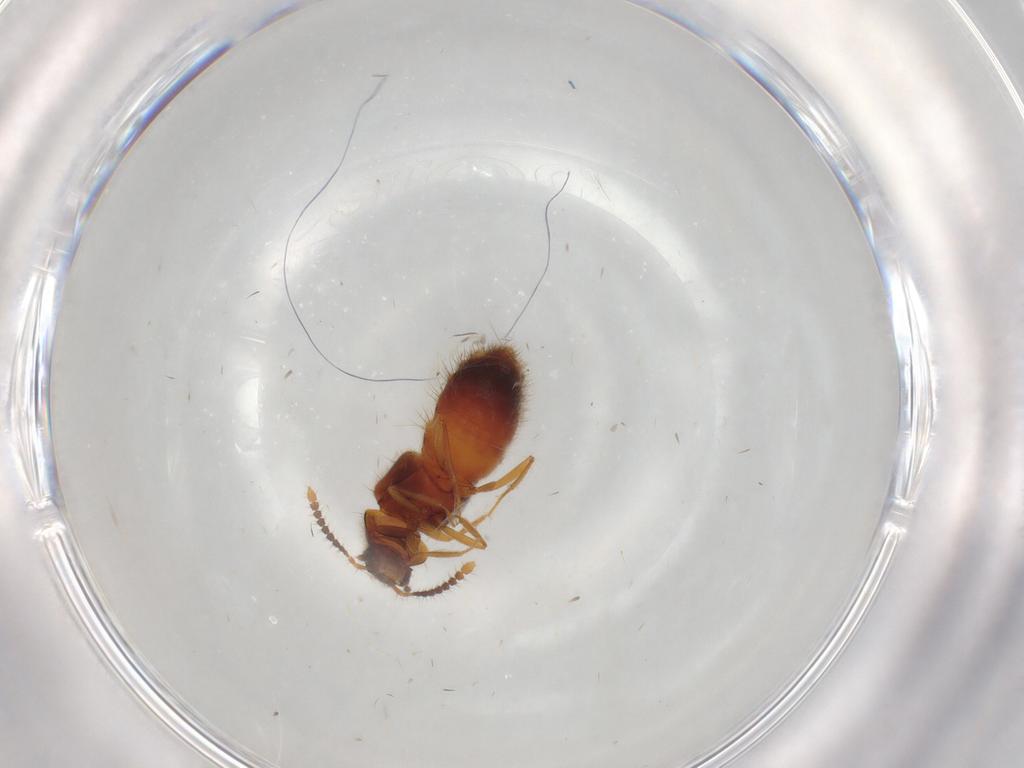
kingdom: Animalia
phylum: Arthropoda
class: Insecta
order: Coleoptera
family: Staphylinidae
